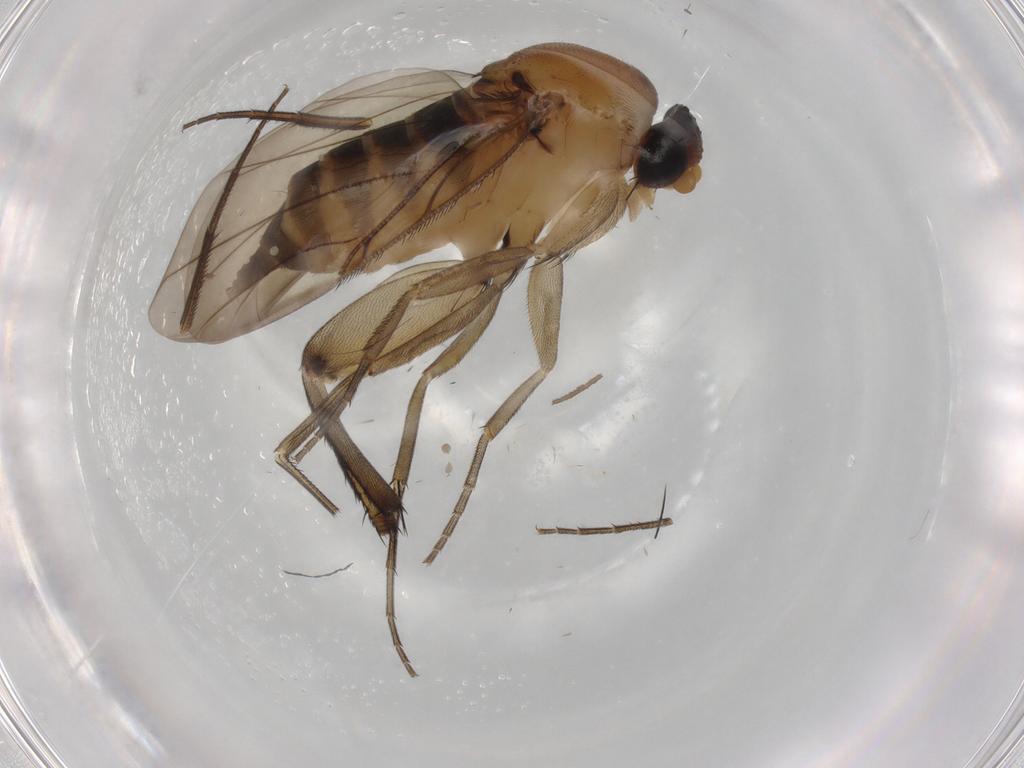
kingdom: Animalia
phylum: Arthropoda
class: Insecta
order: Diptera
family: Phoridae
